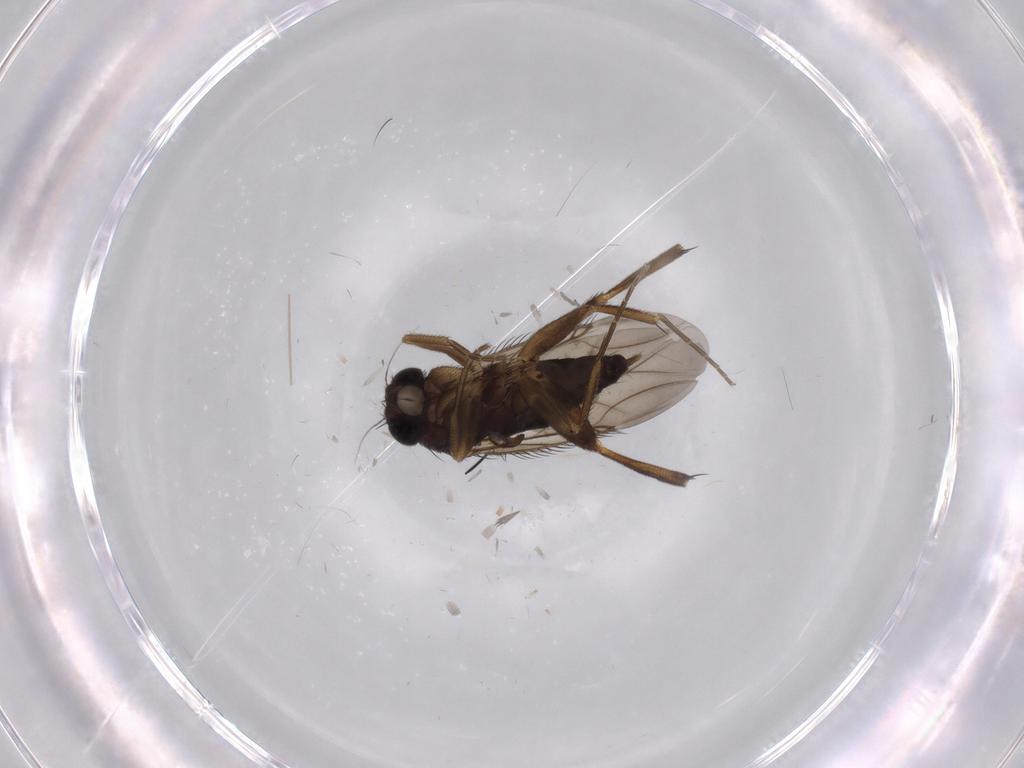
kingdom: Animalia
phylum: Arthropoda
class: Insecta
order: Diptera
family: Phoridae
